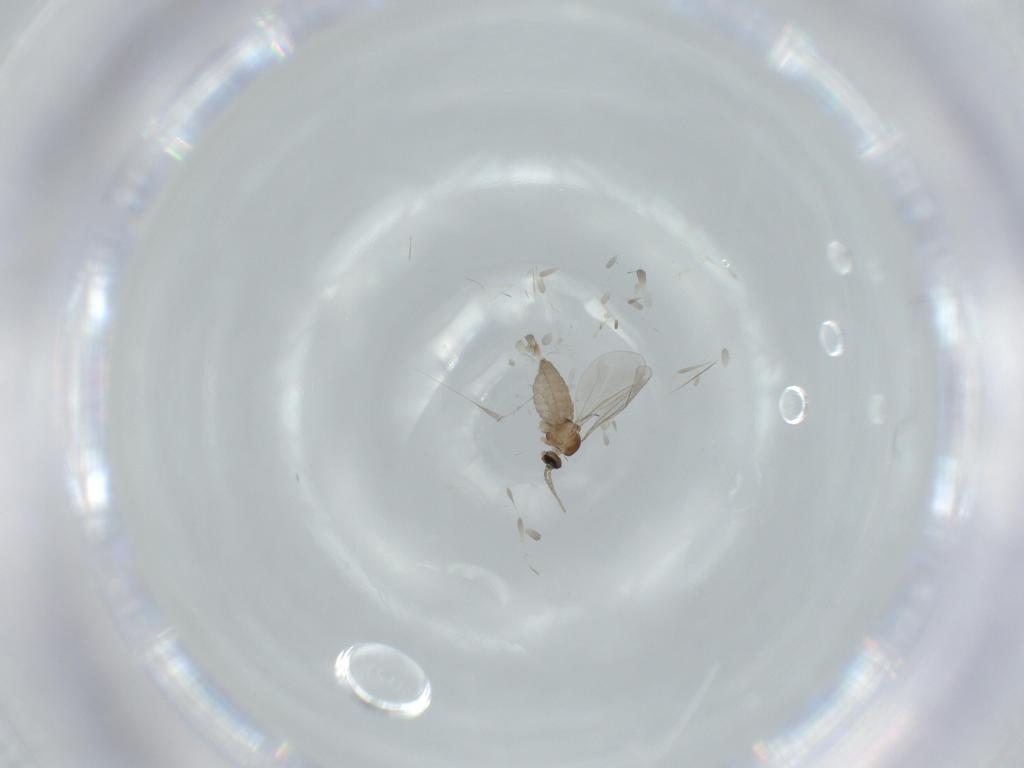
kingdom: Animalia
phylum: Arthropoda
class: Insecta
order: Diptera
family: Cecidomyiidae
